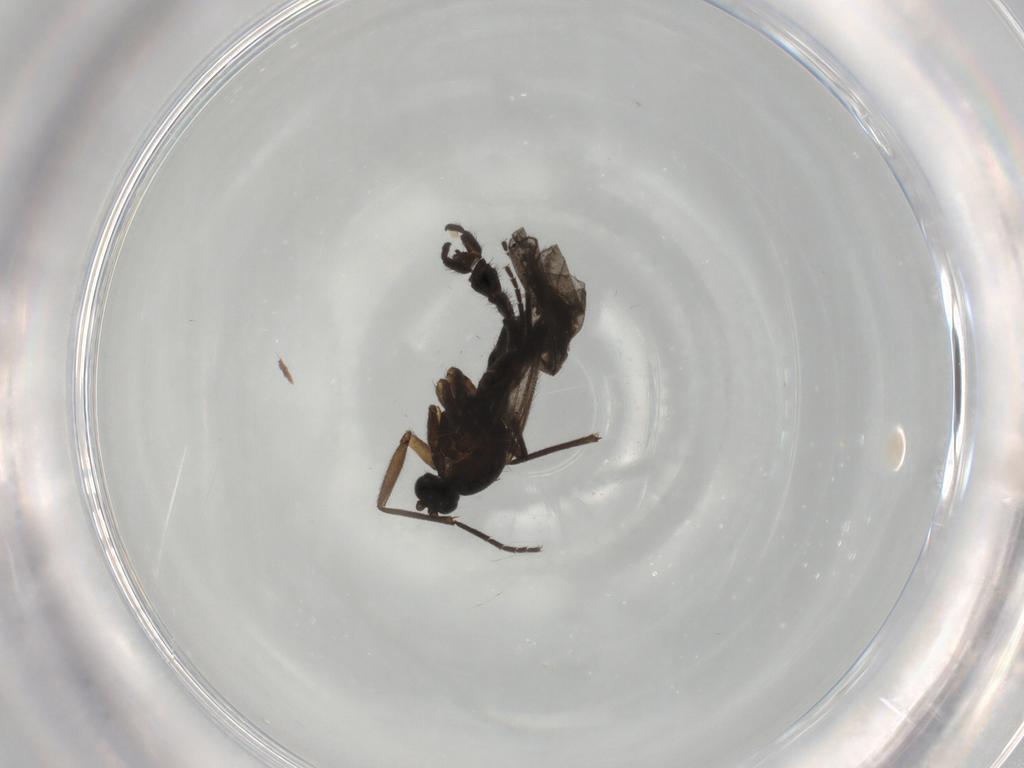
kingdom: Animalia
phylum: Arthropoda
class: Insecta
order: Diptera
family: Sciaridae
